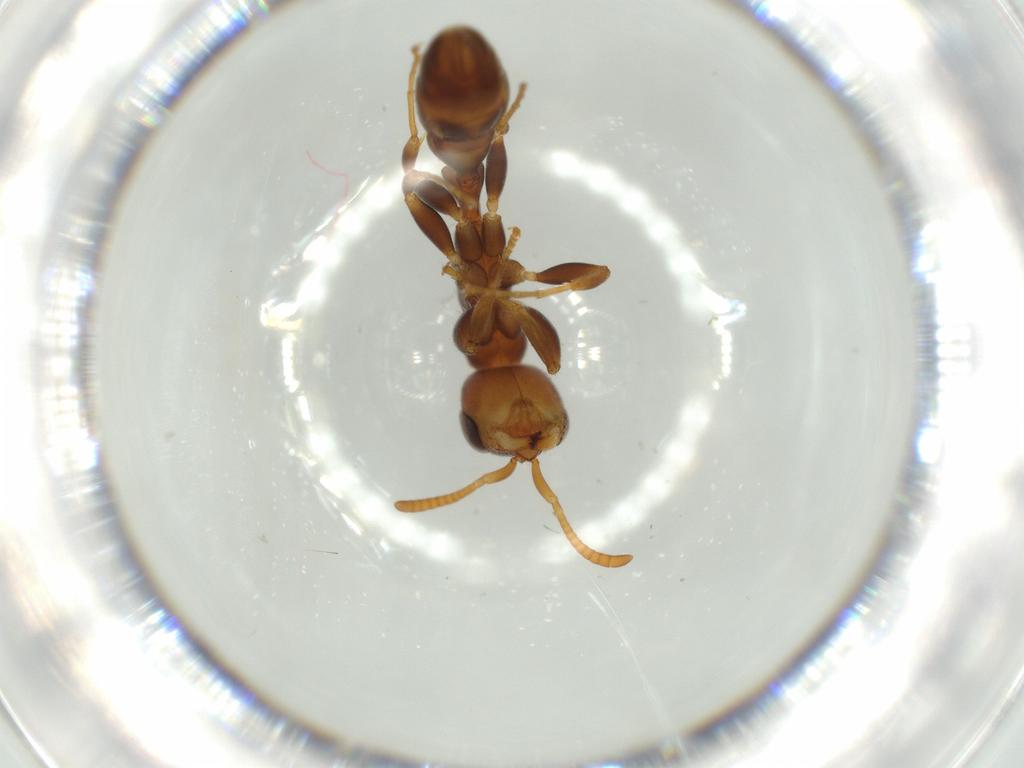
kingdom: Animalia
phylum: Arthropoda
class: Insecta
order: Hymenoptera
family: Formicidae
